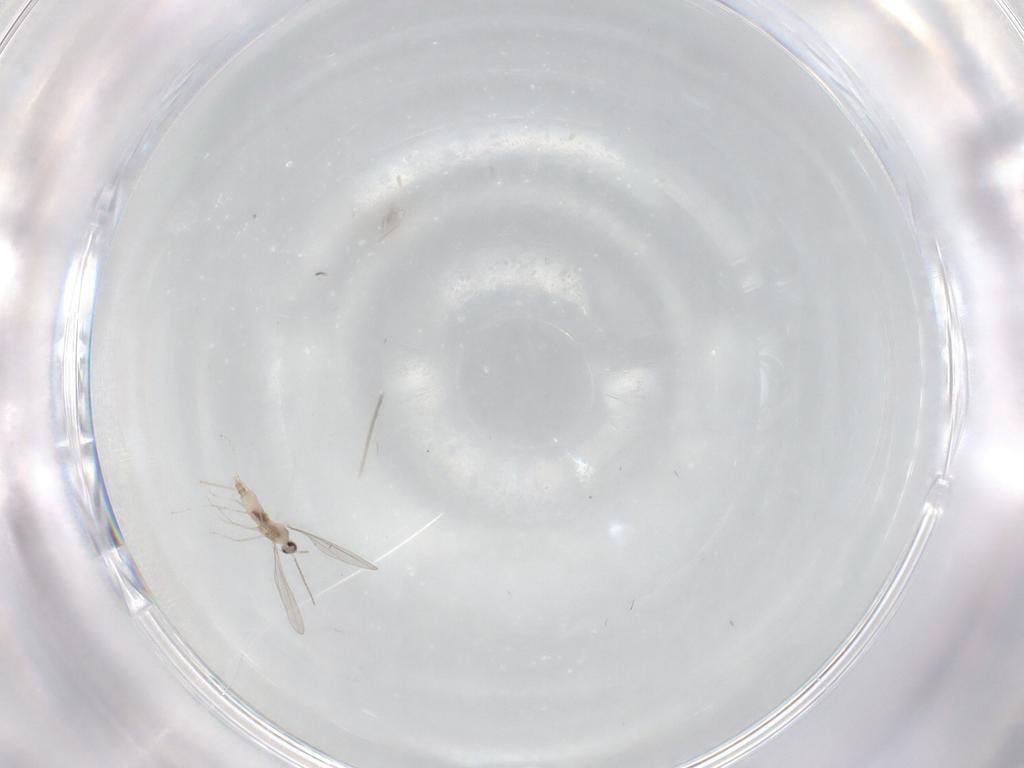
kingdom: Animalia
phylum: Arthropoda
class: Insecta
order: Diptera
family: Cecidomyiidae
